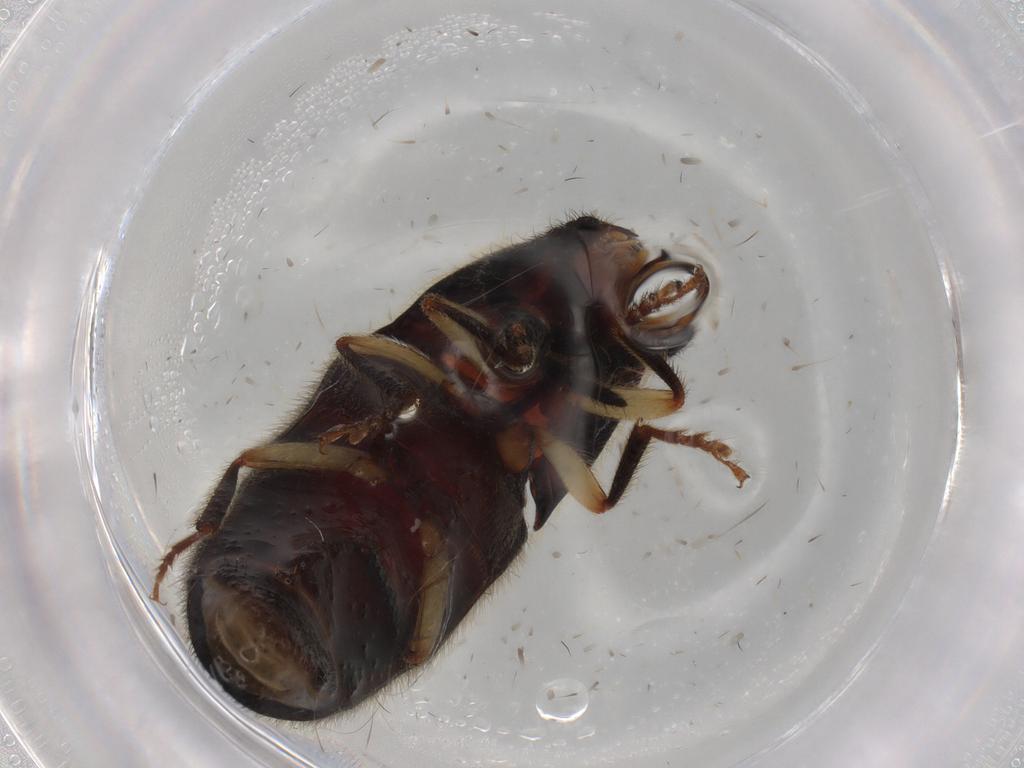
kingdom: Animalia
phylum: Arthropoda
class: Insecta
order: Coleoptera
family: Elateridae
